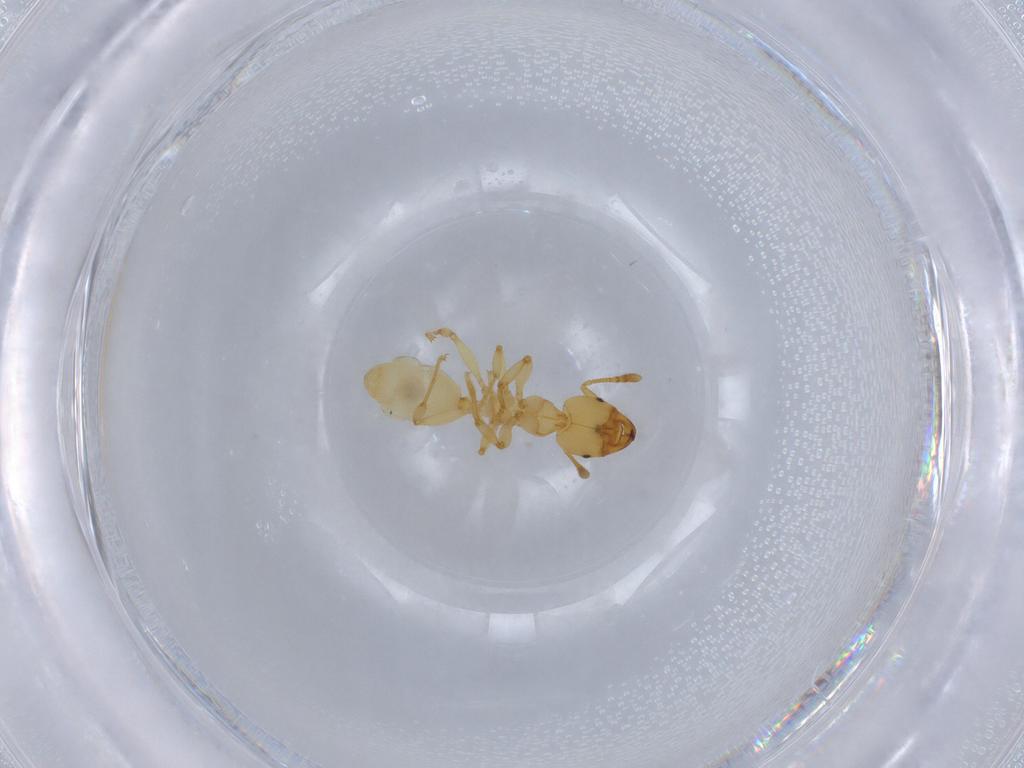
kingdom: Animalia
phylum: Arthropoda
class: Insecta
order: Hymenoptera
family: Formicidae
